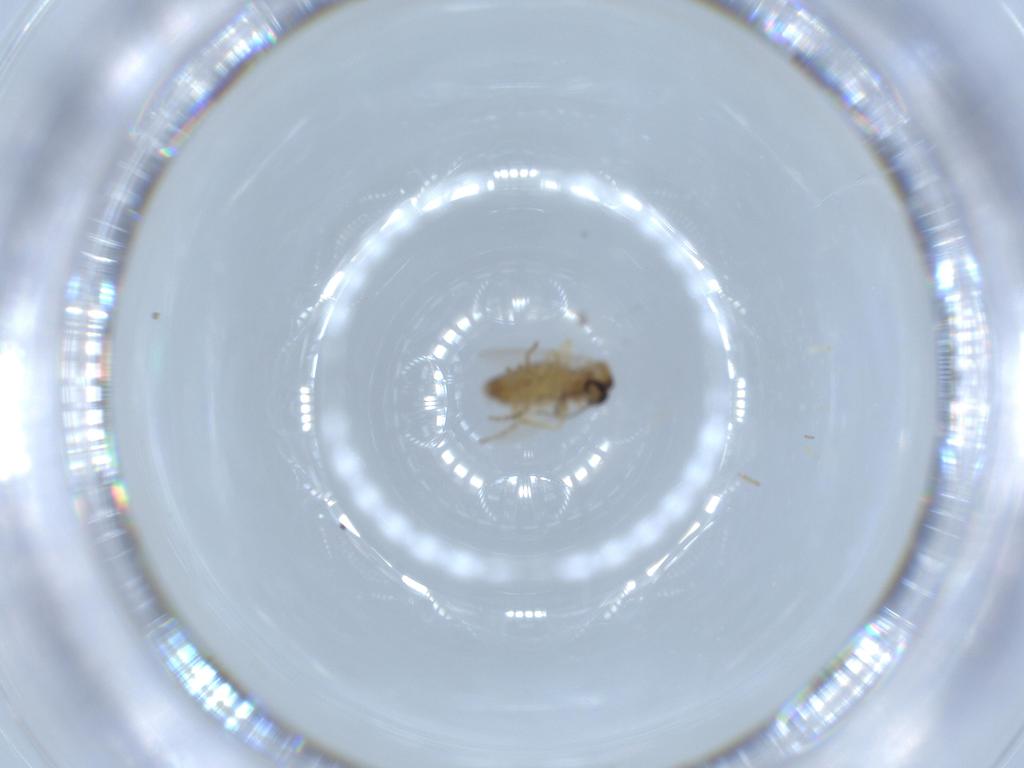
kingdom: Animalia
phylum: Arthropoda
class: Insecta
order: Diptera
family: Ceratopogonidae
